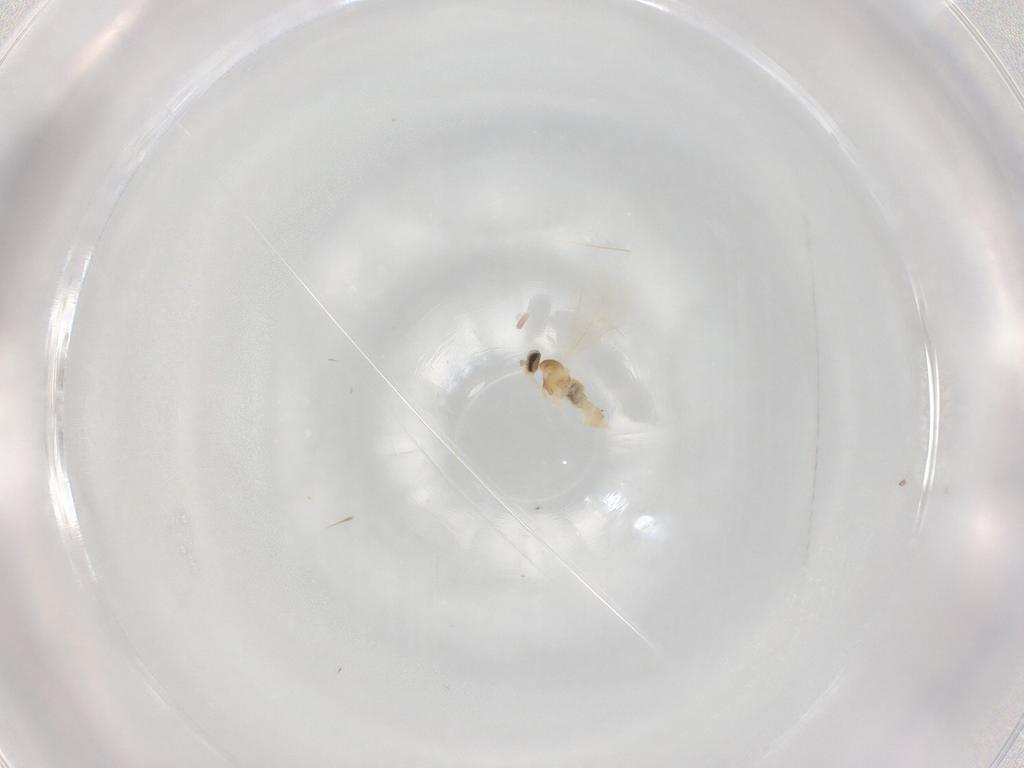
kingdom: Animalia
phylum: Arthropoda
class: Insecta
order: Diptera
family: Cecidomyiidae
